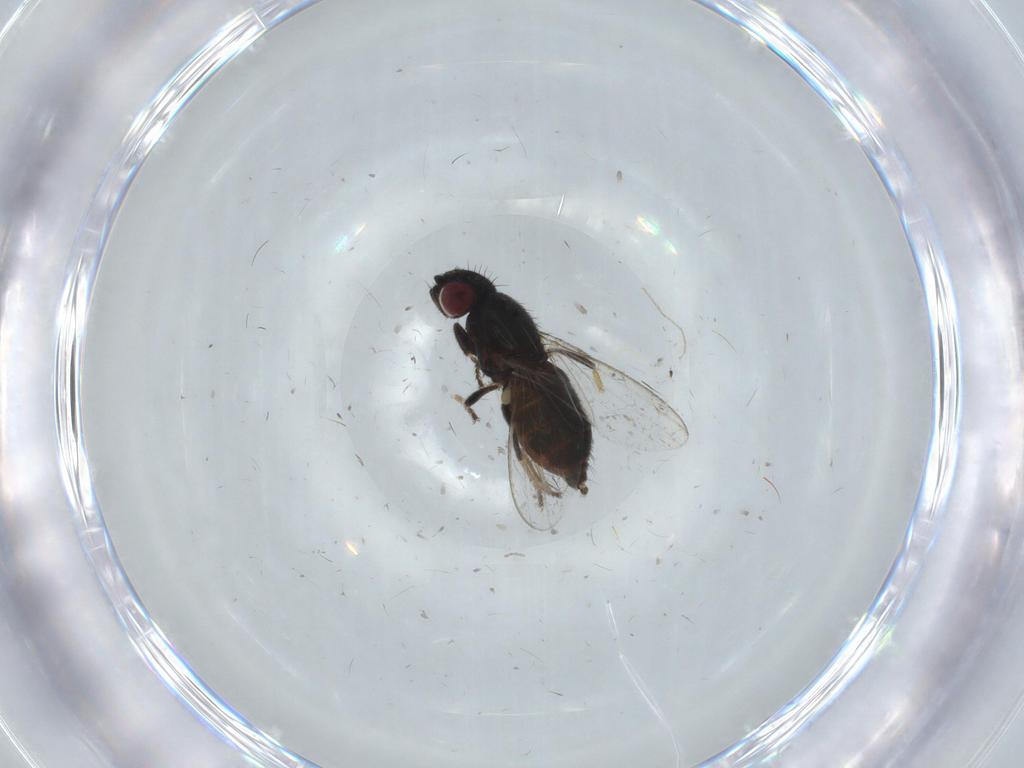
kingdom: Animalia
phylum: Arthropoda
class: Insecta
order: Diptera
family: Milichiidae
